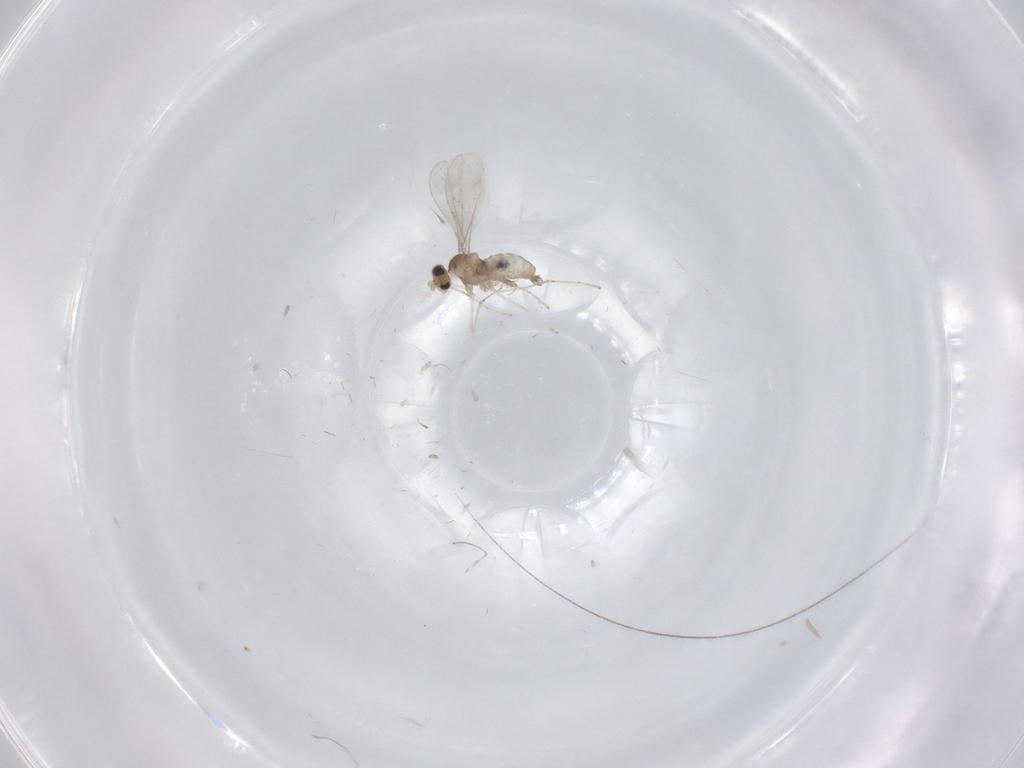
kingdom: Animalia
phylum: Arthropoda
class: Insecta
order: Diptera
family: Cecidomyiidae
